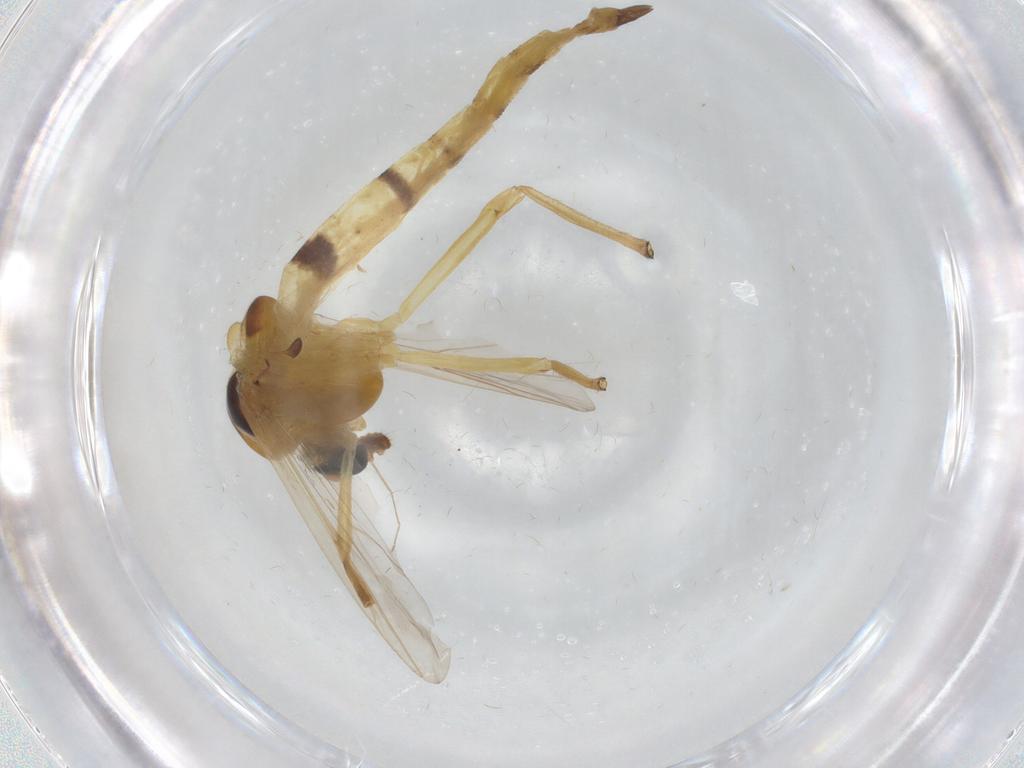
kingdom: Animalia
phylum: Arthropoda
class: Insecta
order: Diptera
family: Chironomidae
